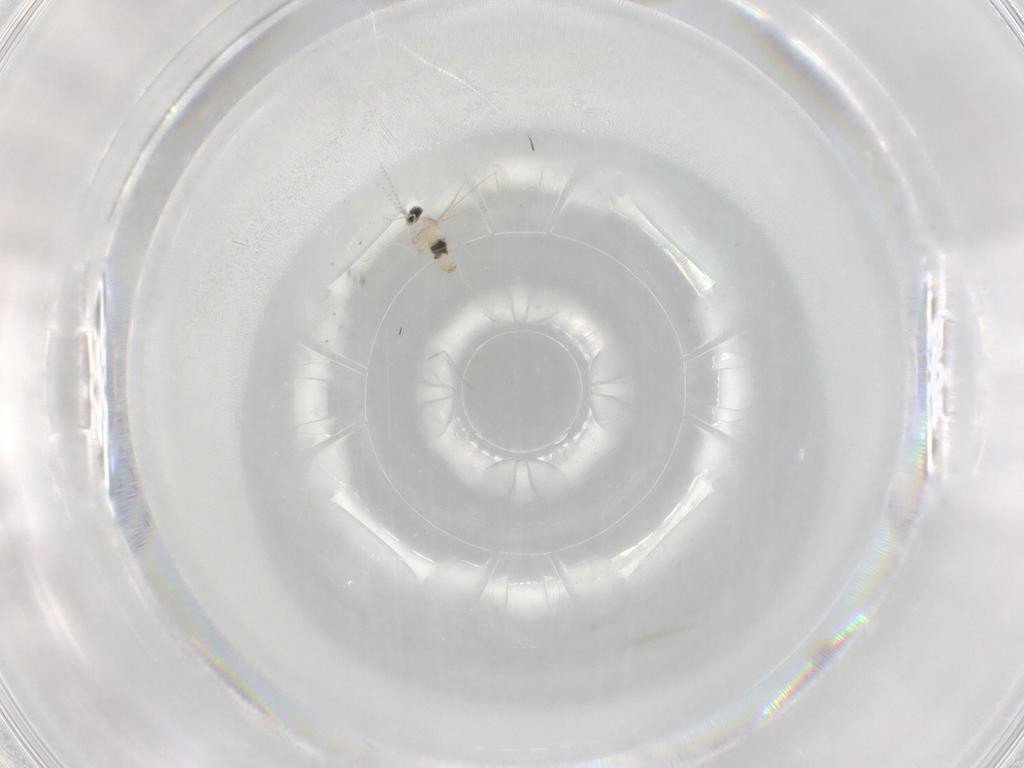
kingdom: Animalia
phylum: Arthropoda
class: Insecta
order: Diptera
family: Cecidomyiidae
